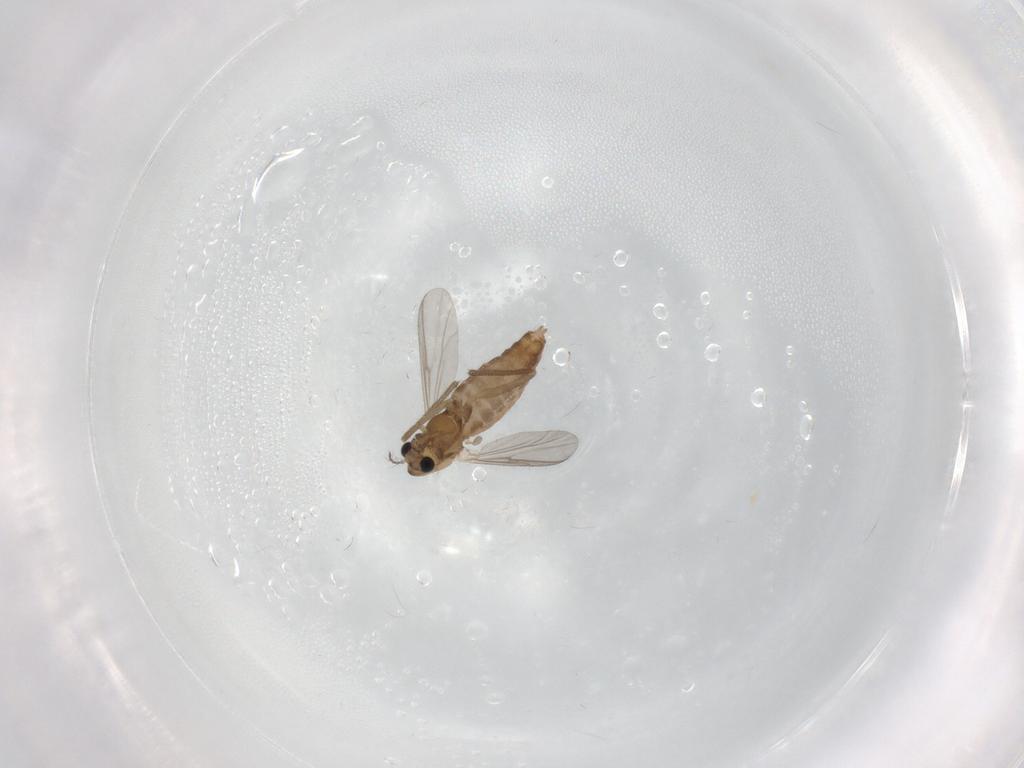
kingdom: Animalia
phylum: Arthropoda
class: Insecta
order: Diptera
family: Chironomidae
